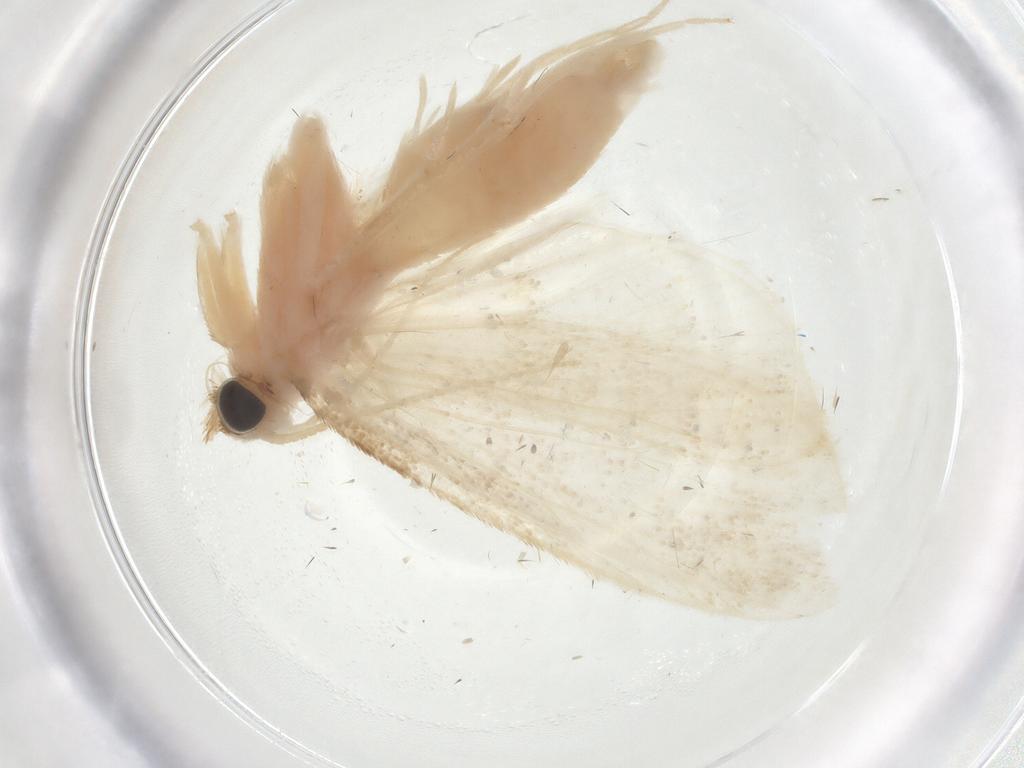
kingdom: Animalia
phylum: Arthropoda
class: Insecta
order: Lepidoptera
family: Crambidae
